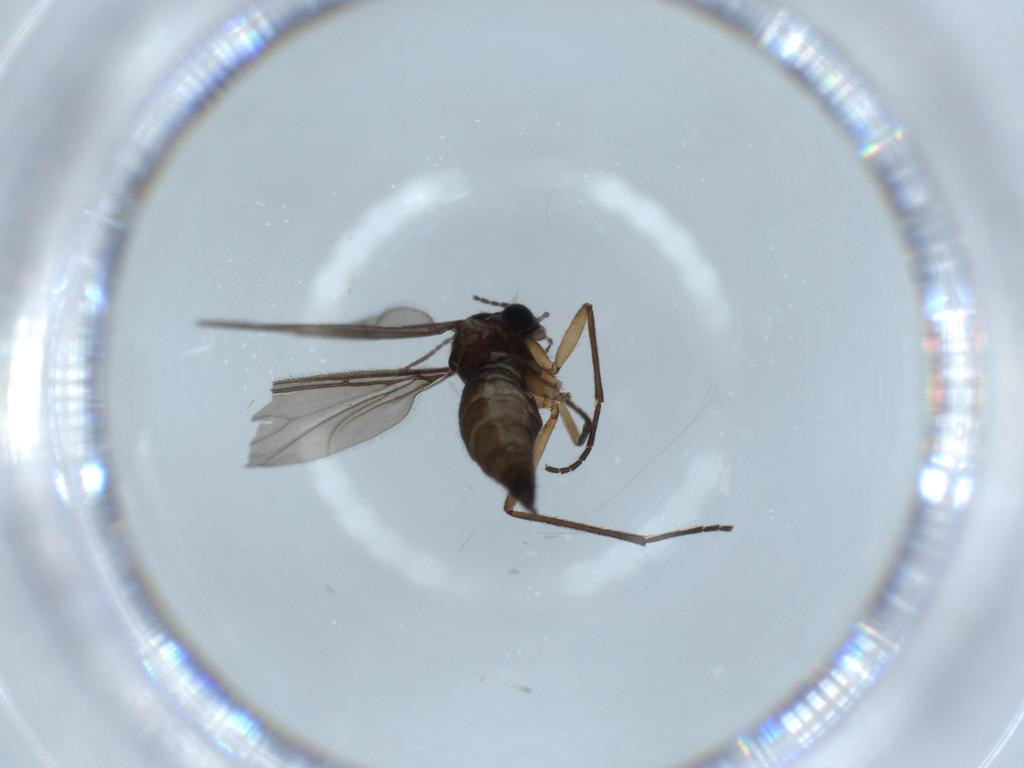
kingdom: Animalia
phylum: Arthropoda
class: Insecta
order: Diptera
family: Sciaridae
